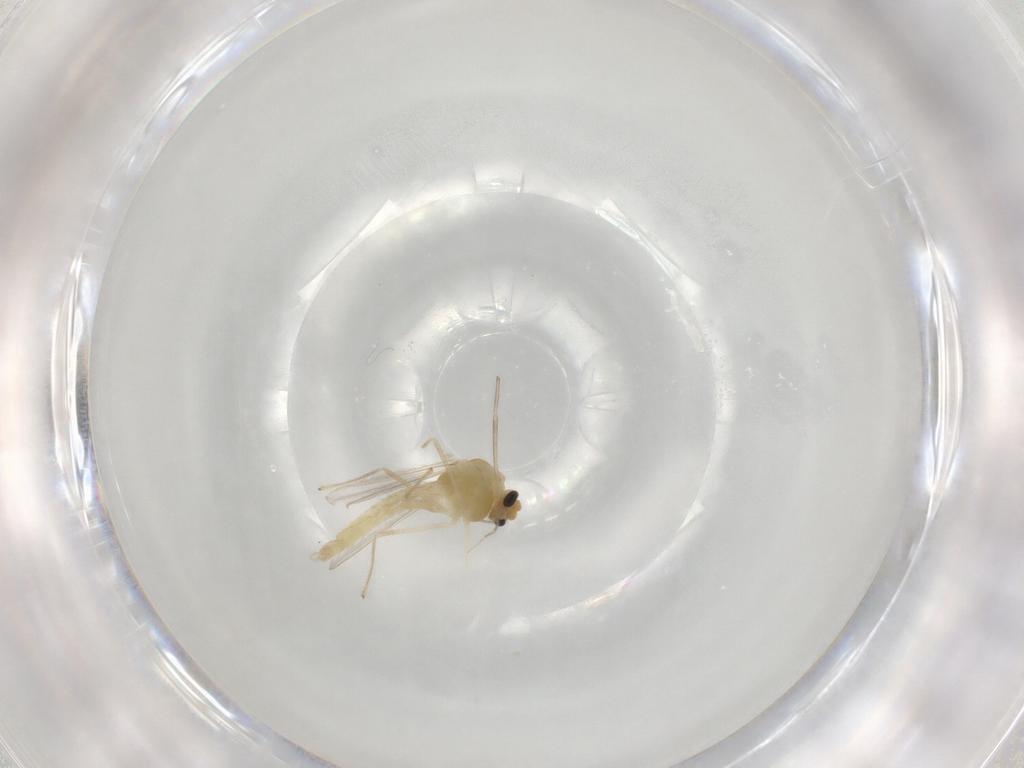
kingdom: Animalia
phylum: Arthropoda
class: Insecta
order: Diptera
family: Chironomidae
